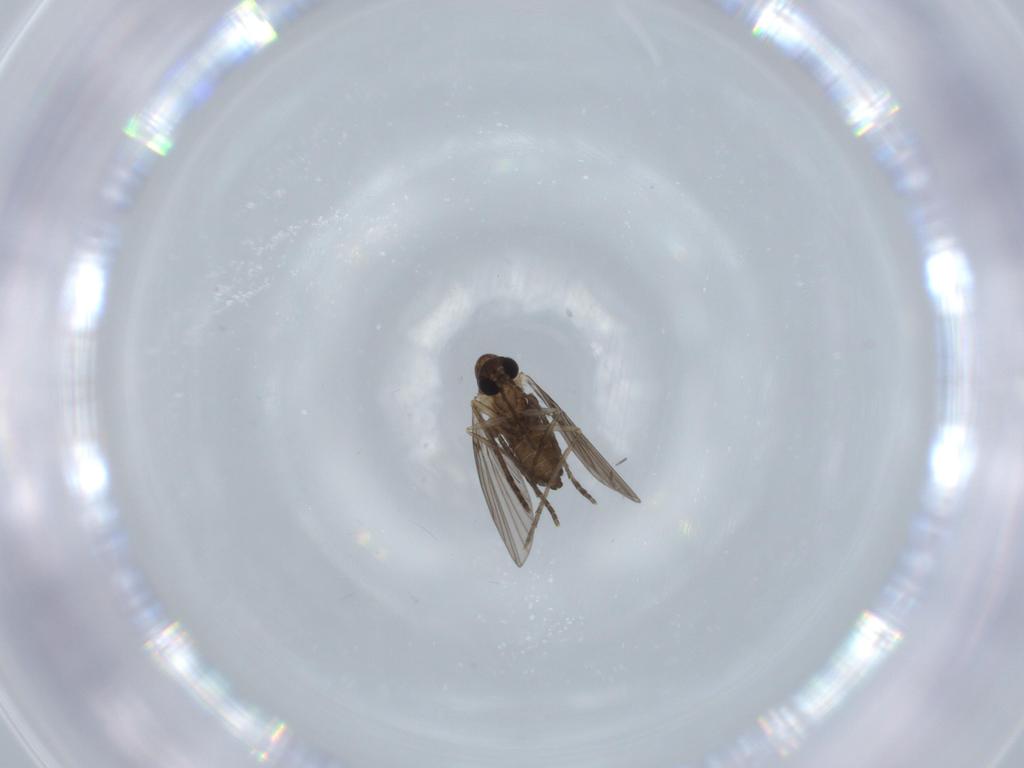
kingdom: Animalia
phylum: Arthropoda
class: Insecta
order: Diptera
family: Psychodidae
